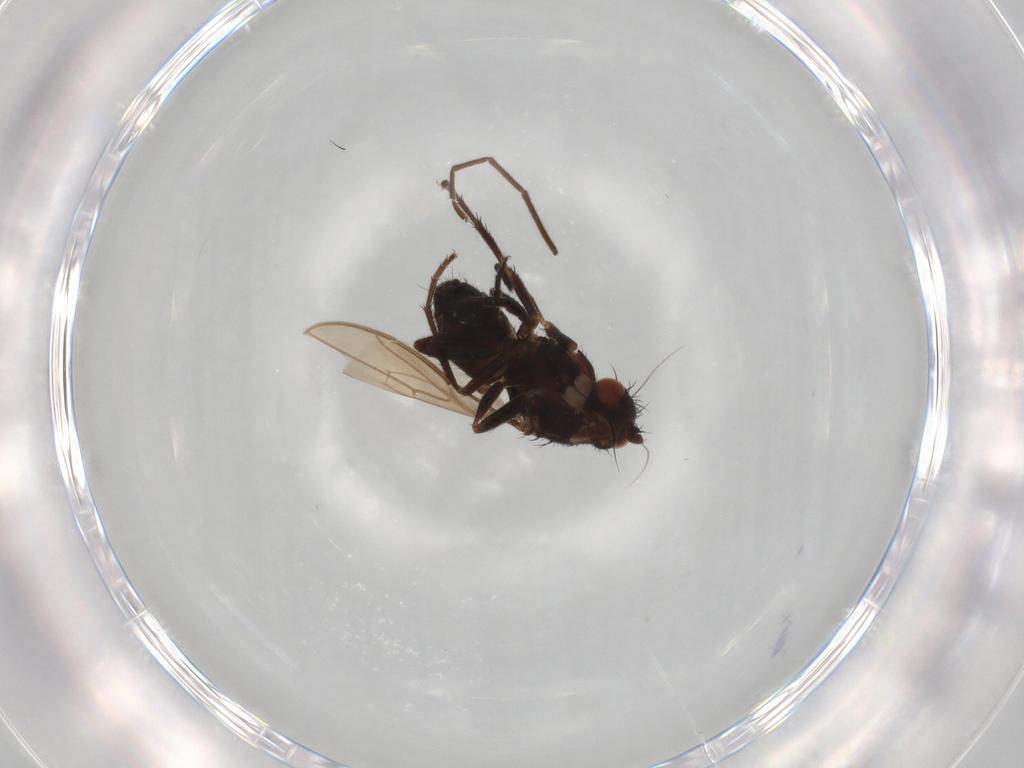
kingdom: Animalia
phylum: Arthropoda
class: Insecta
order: Diptera
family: Sphaeroceridae
